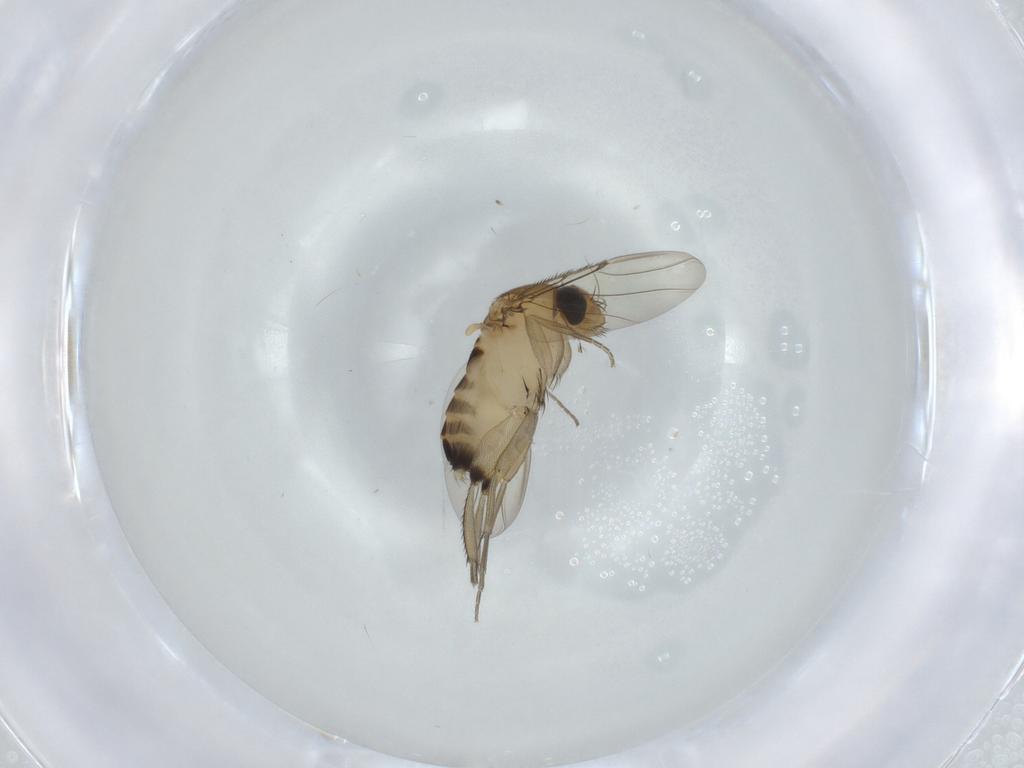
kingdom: Animalia
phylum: Arthropoda
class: Insecta
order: Diptera
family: Phoridae
